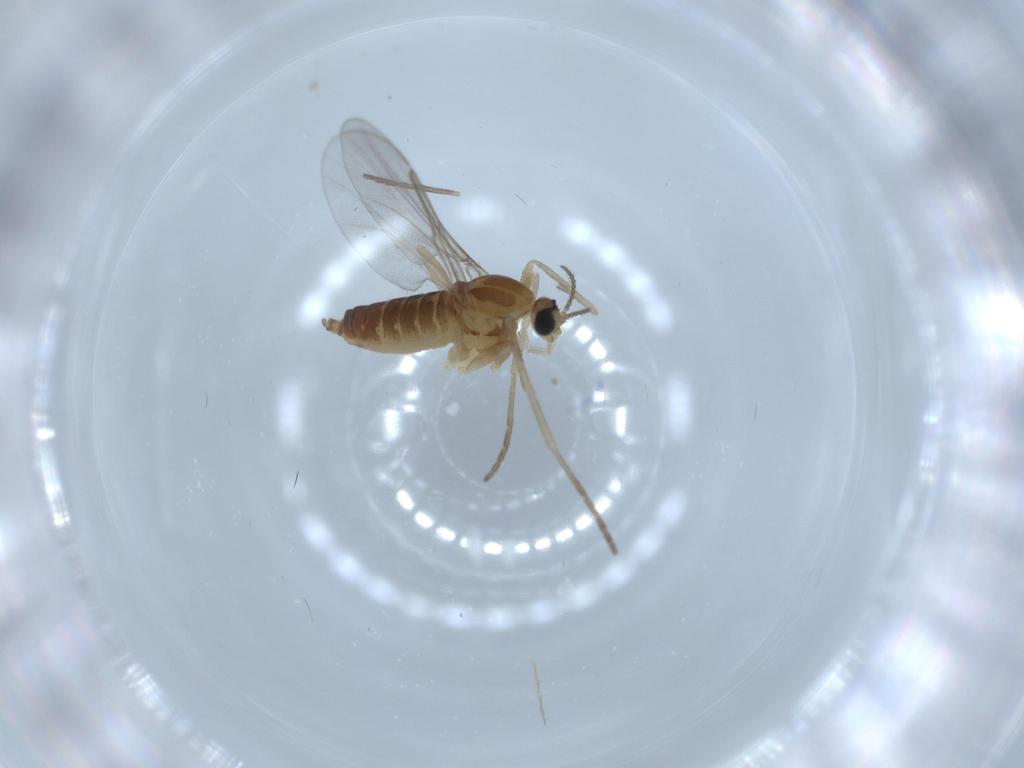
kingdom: Animalia
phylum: Arthropoda
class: Insecta
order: Diptera
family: Cecidomyiidae
